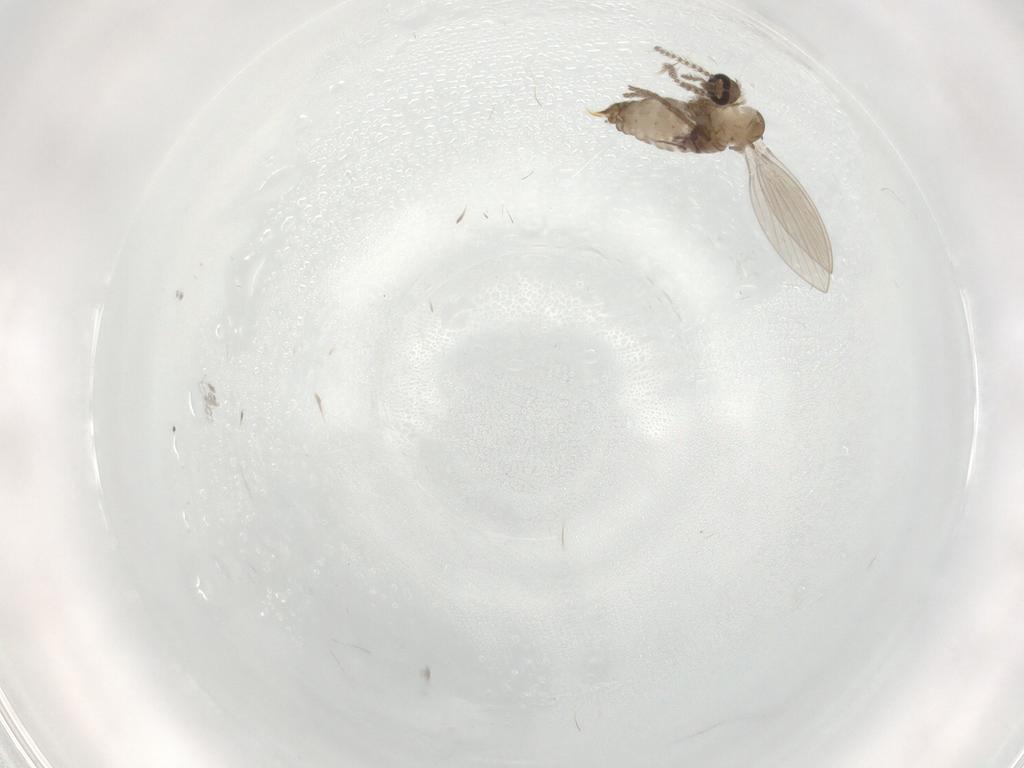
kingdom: Animalia
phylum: Arthropoda
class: Insecta
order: Diptera
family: Psychodidae
